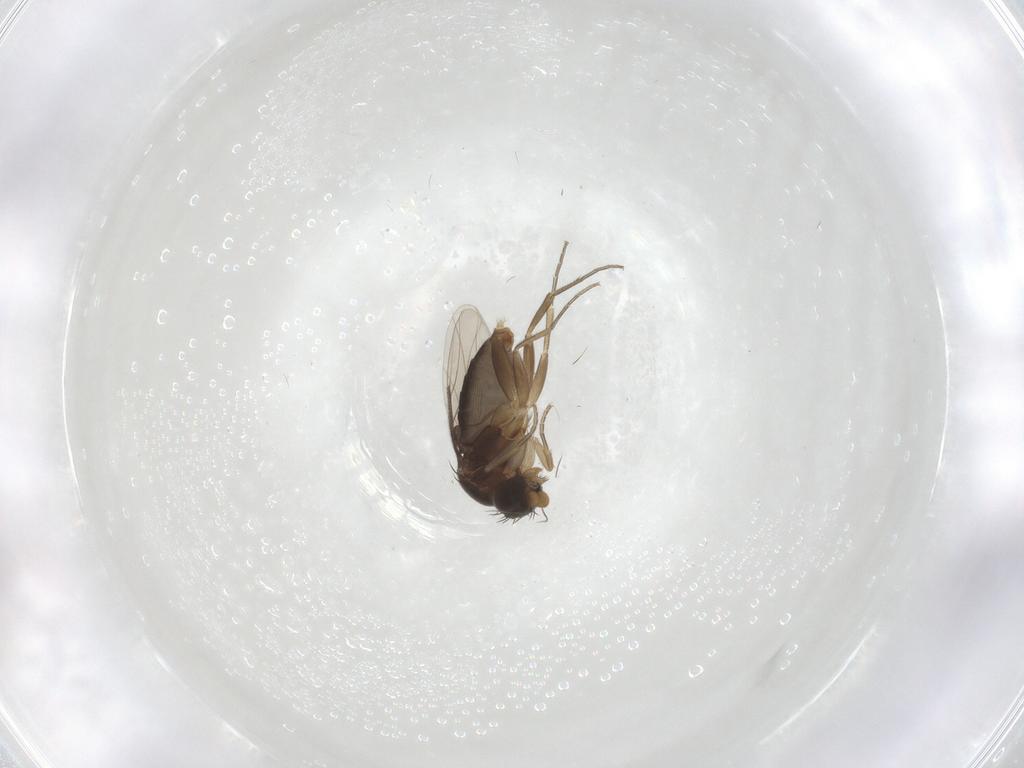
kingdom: Animalia
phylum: Arthropoda
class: Insecta
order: Diptera
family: Phoridae
